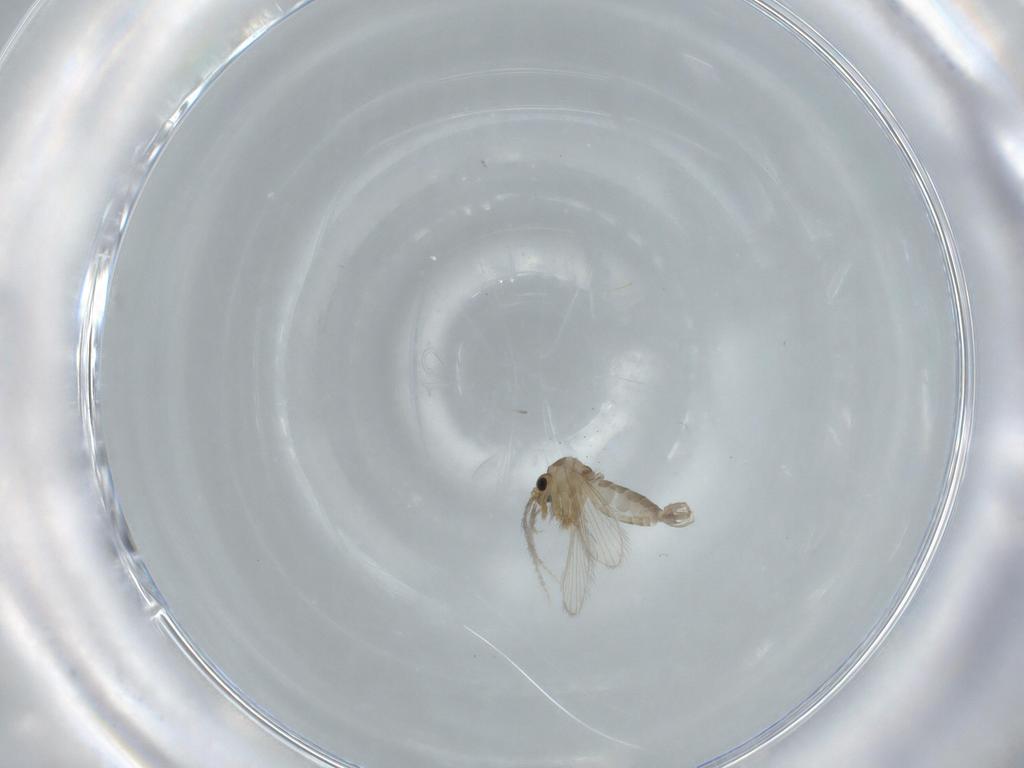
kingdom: Animalia
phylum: Arthropoda
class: Insecta
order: Diptera
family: Psychodidae
